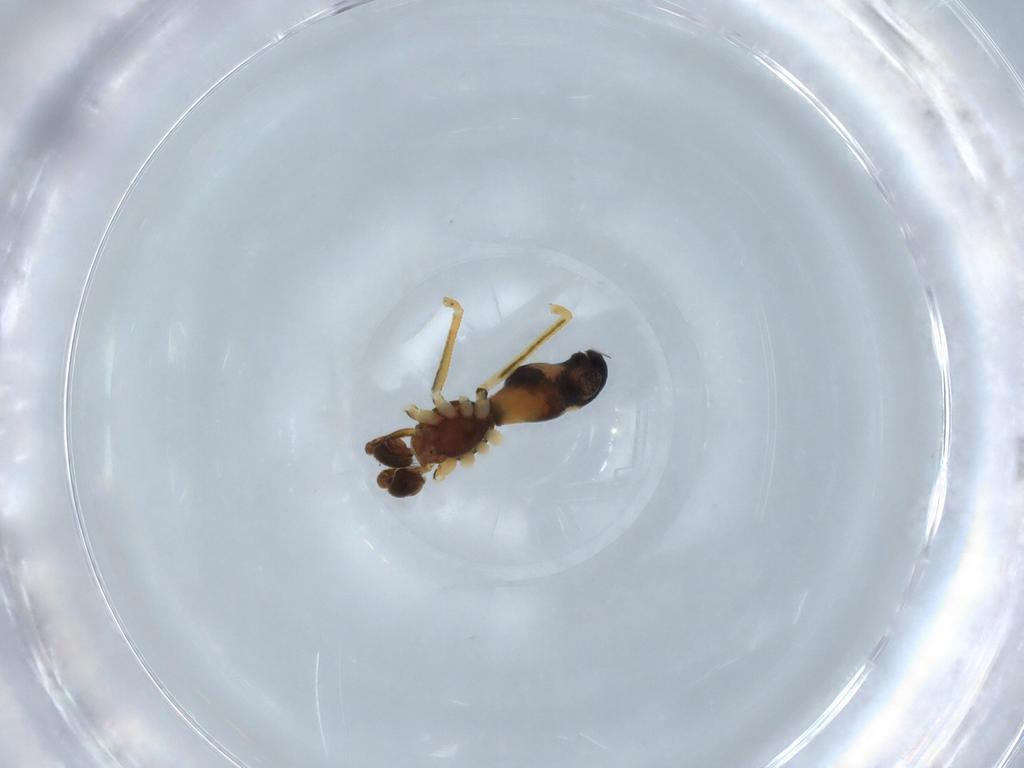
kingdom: Animalia
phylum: Arthropoda
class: Arachnida
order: Araneae
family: Theridiidae
